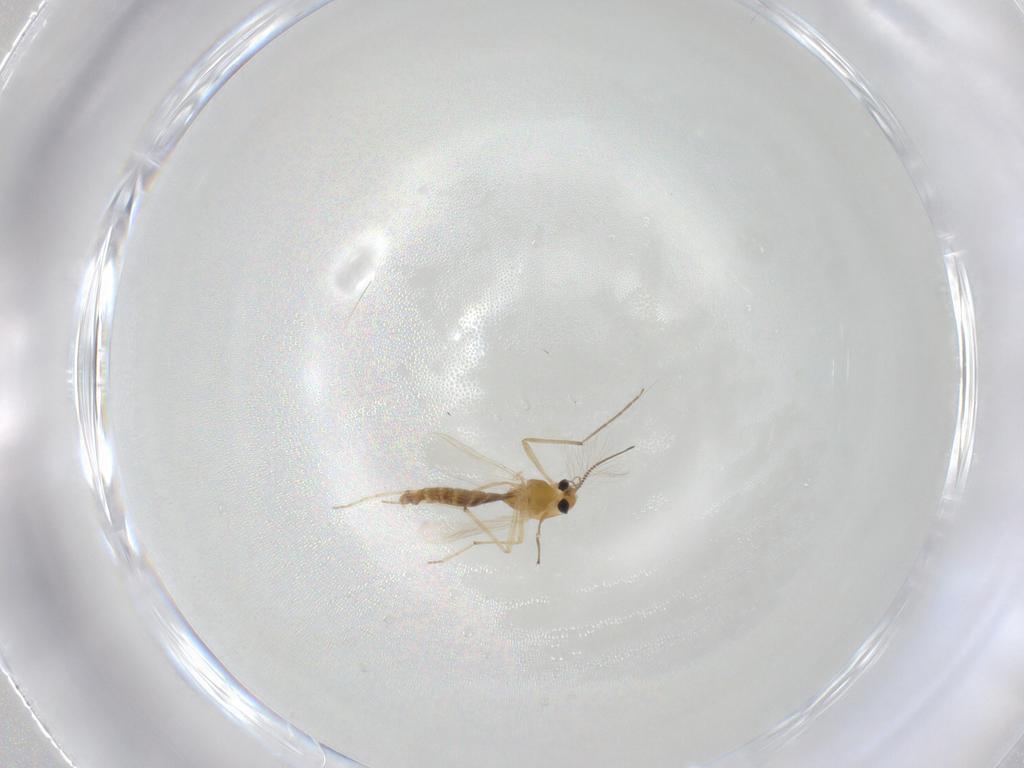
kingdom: Animalia
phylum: Arthropoda
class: Insecta
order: Diptera
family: Chironomidae
